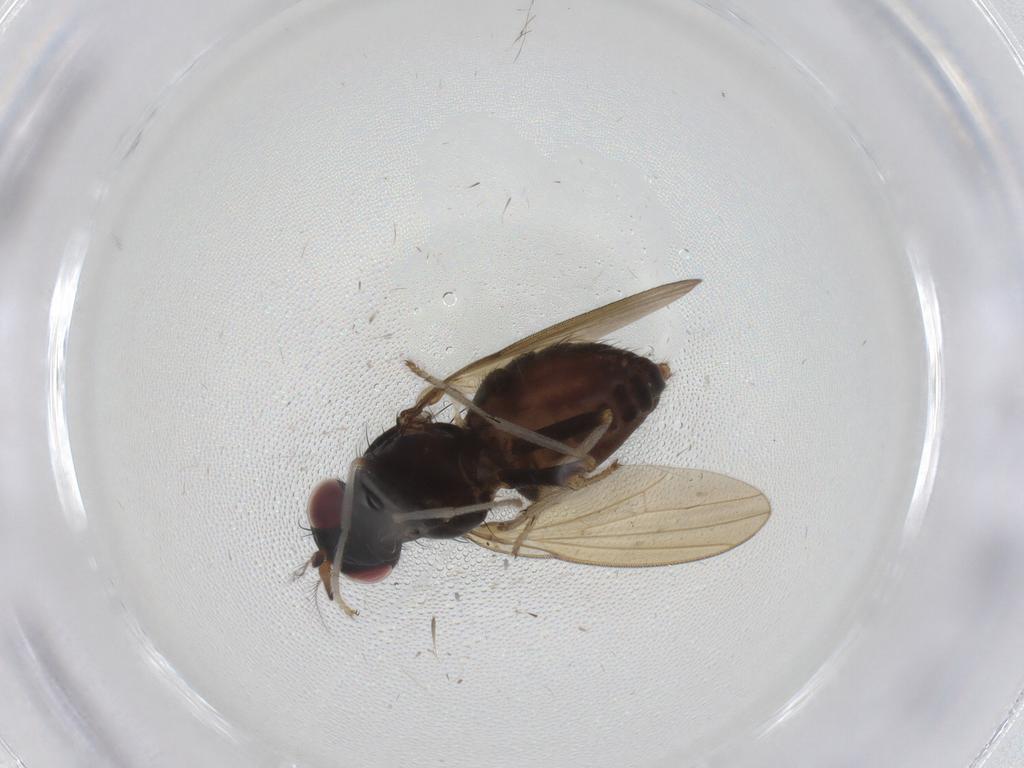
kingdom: Animalia
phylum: Arthropoda
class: Insecta
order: Diptera
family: Lauxaniidae
